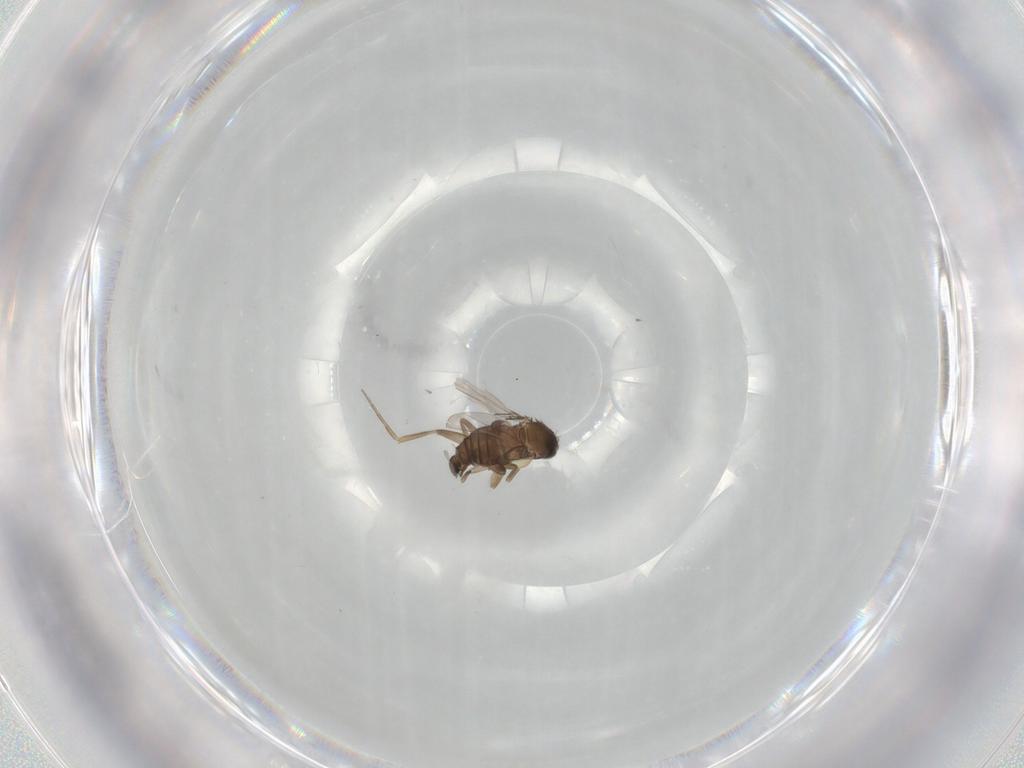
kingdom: Animalia
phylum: Arthropoda
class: Insecta
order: Diptera
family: Phoridae
